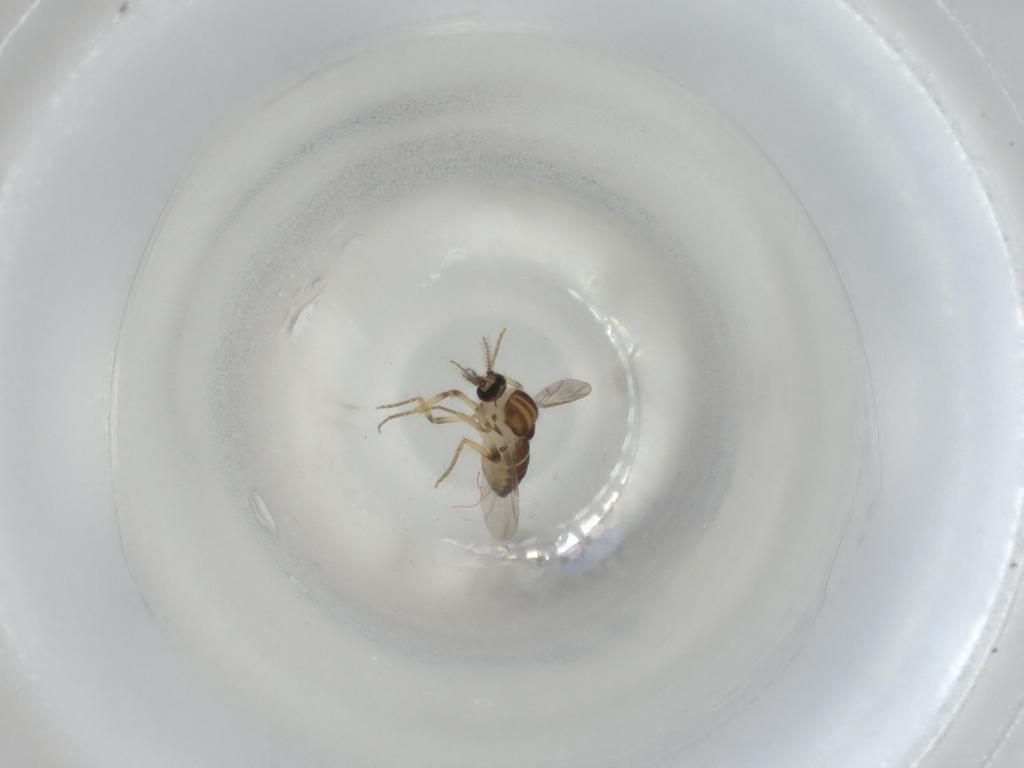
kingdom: Animalia
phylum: Arthropoda
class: Insecta
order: Diptera
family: Ceratopogonidae
